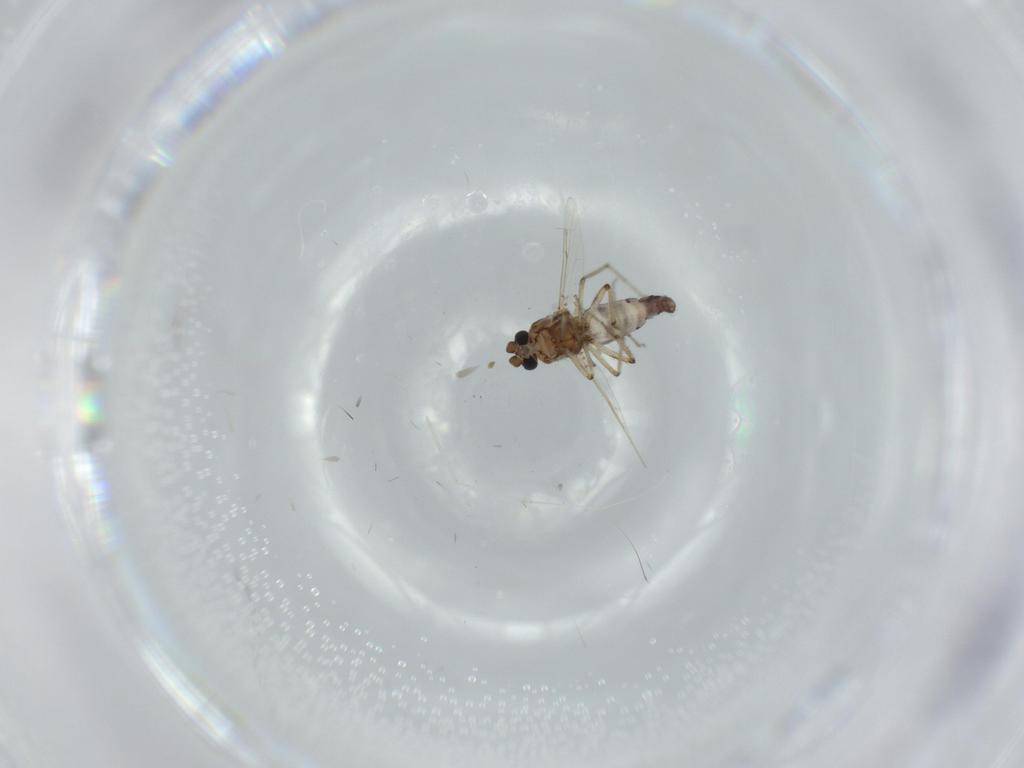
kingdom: Animalia
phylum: Arthropoda
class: Insecta
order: Diptera
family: Ceratopogonidae
